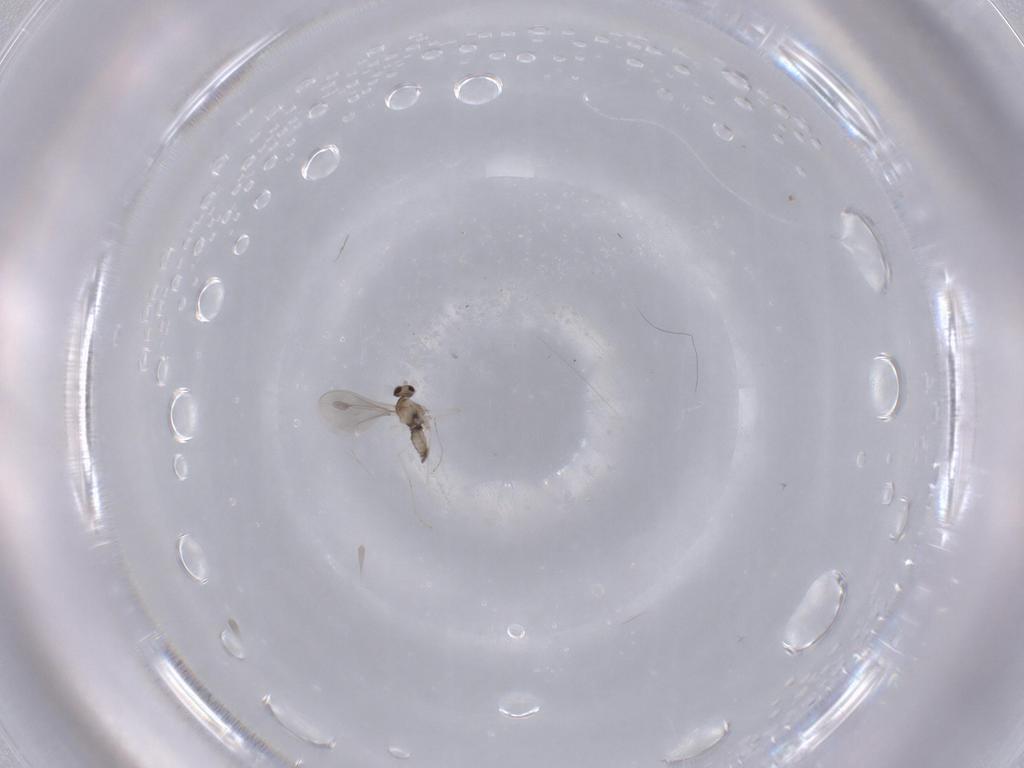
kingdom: Animalia
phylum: Arthropoda
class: Insecta
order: Diptera
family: Cecidomyiidae
